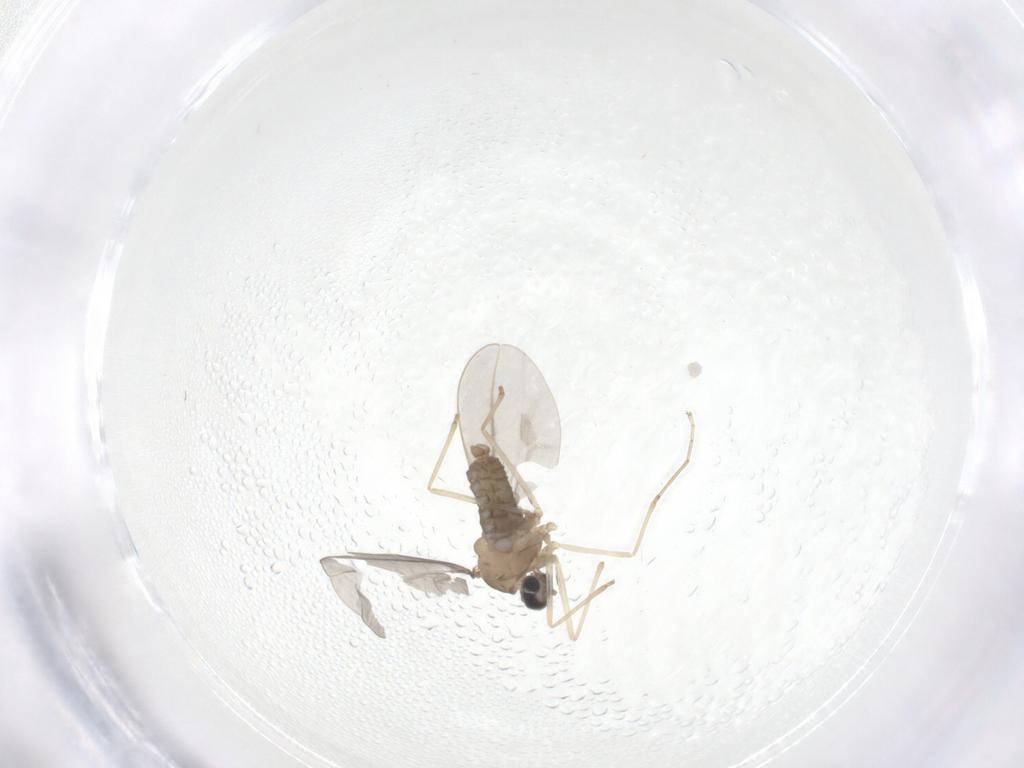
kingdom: Animalia
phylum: Arthropoda
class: Insecta
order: Diptera
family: Cecidomyiidae
